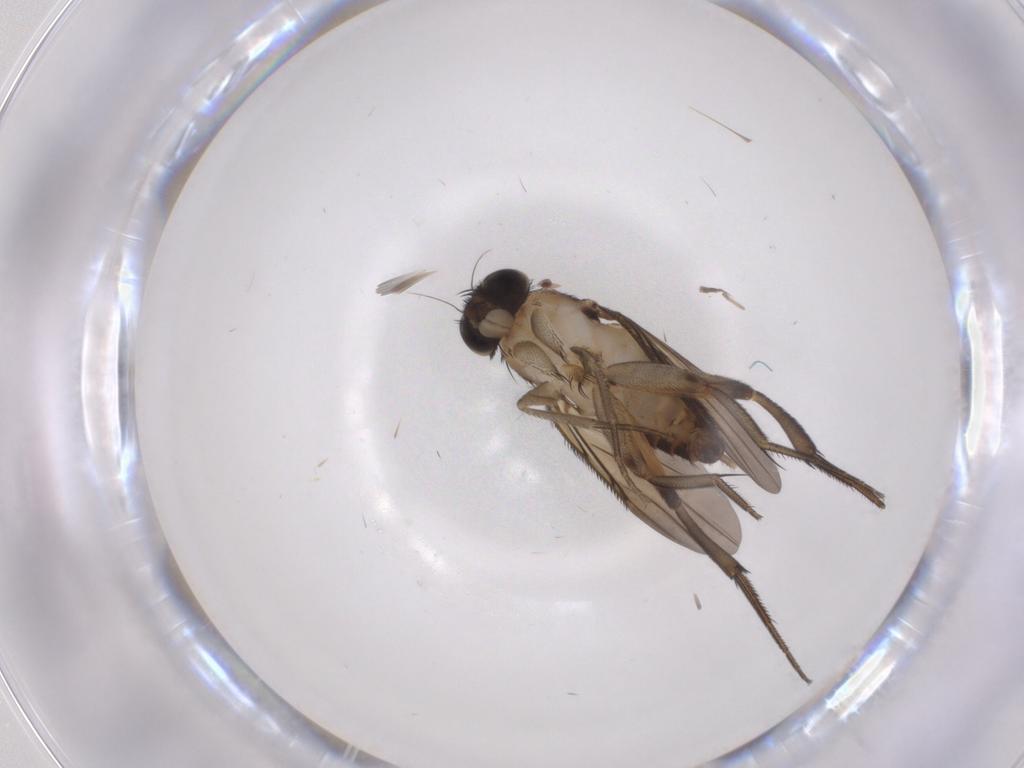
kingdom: Animalia
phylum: Arthropoda
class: Insecta
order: Diptera
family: Phoridae
